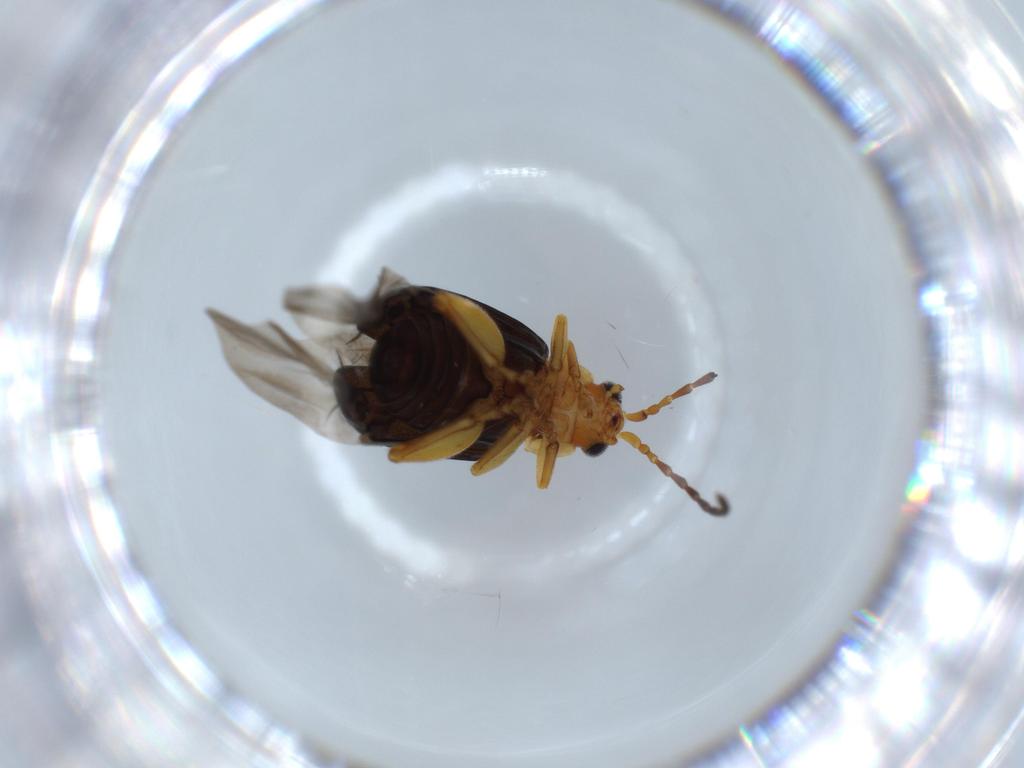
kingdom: Animalia
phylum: Arthropoda
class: Insecta
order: Coleoptera
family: Chrysomelidae
